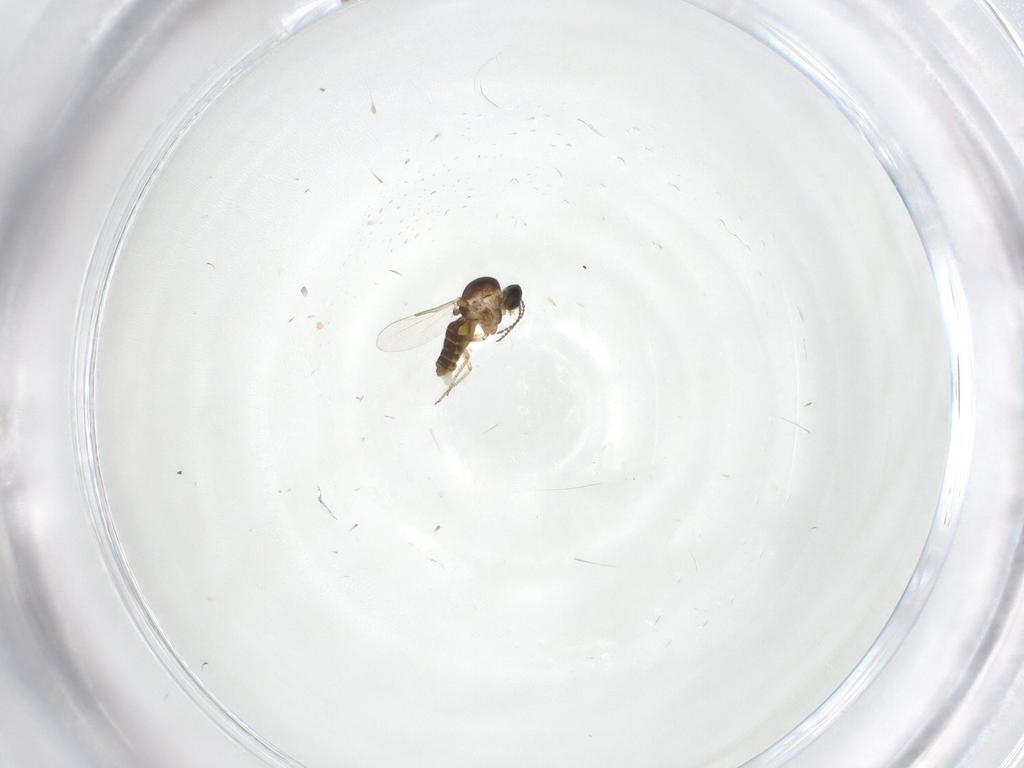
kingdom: Animalia
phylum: Arthropoda
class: Insecta
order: Diptera
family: Ceratopogonidae
